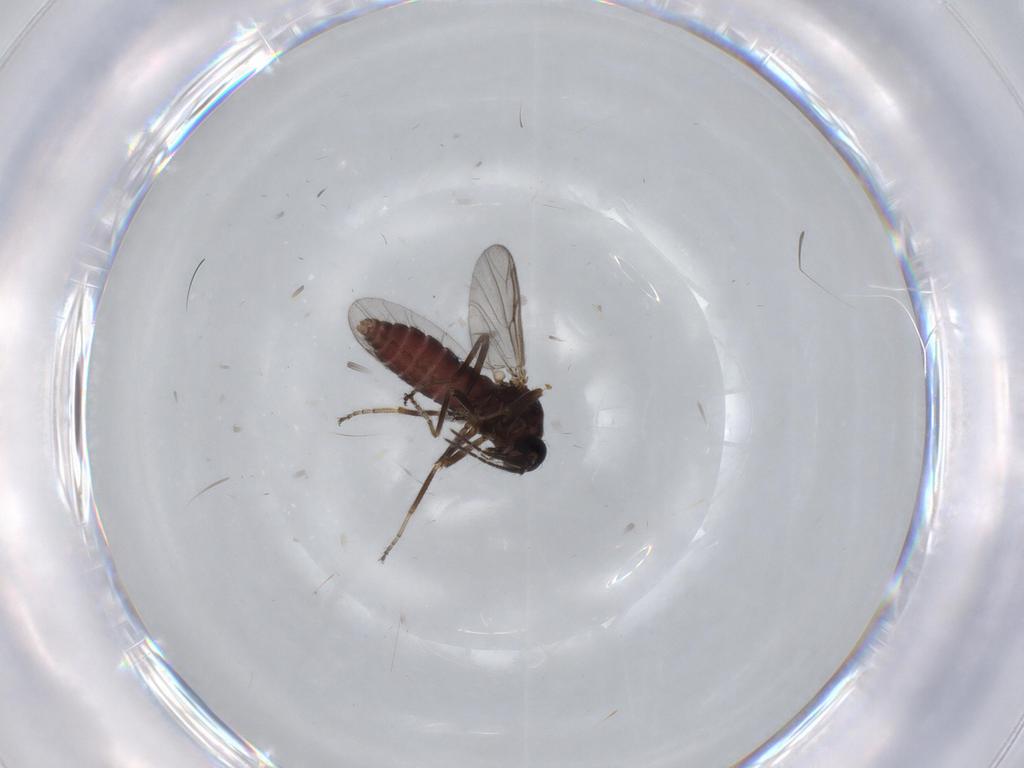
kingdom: Animalia
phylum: Arthropoda
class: Insecta
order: Diptera
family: Ceratopogonidae
